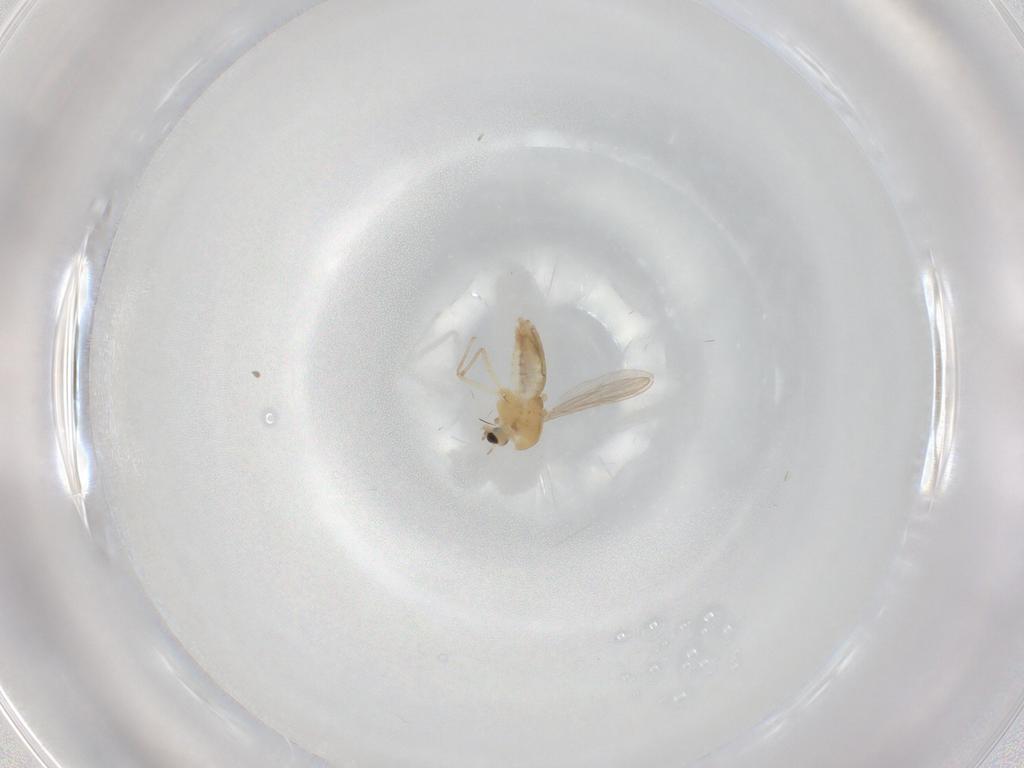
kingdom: Animalia
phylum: Arthropoda
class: Insecta
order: Diptera
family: Chironomidae
